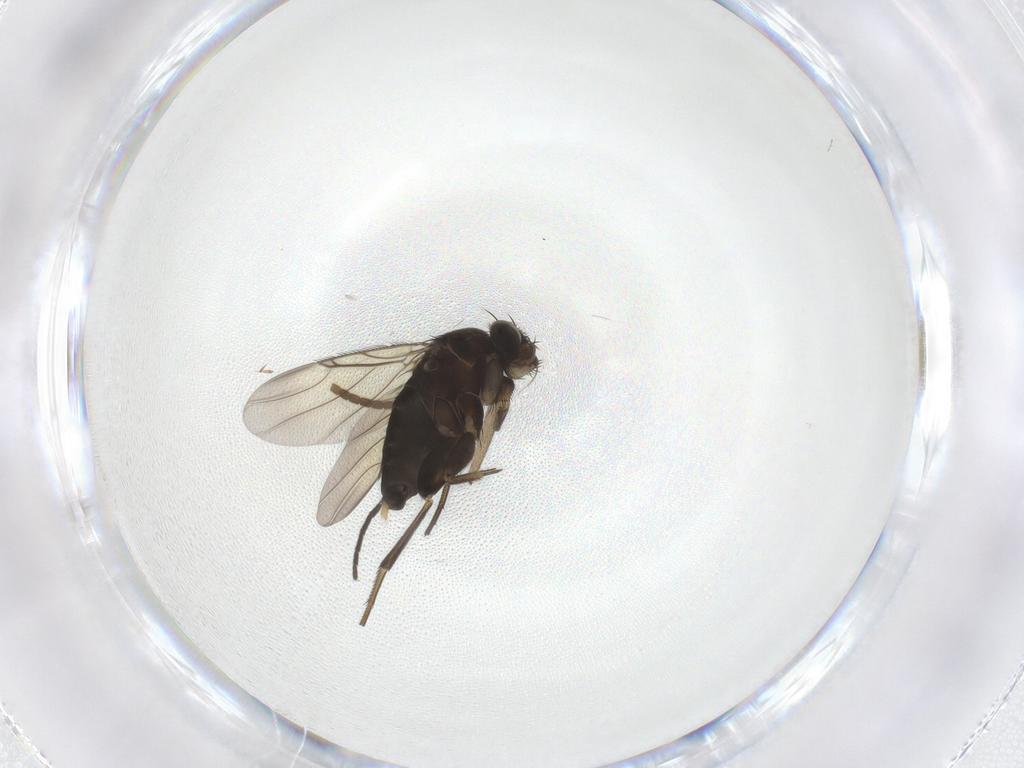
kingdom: Animalia
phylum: Arthropoda
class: Insecta
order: Diptera
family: Phoridae
